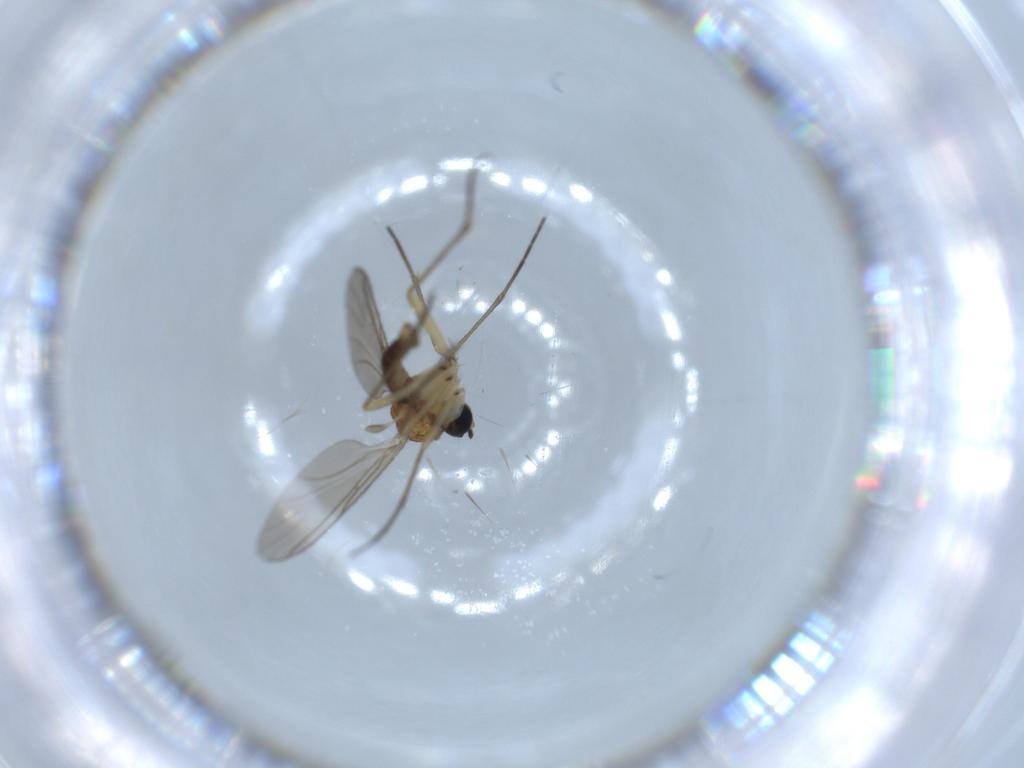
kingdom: Animalia
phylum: Arthropoda
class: Insecta
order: Diptera
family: Sciaridae
